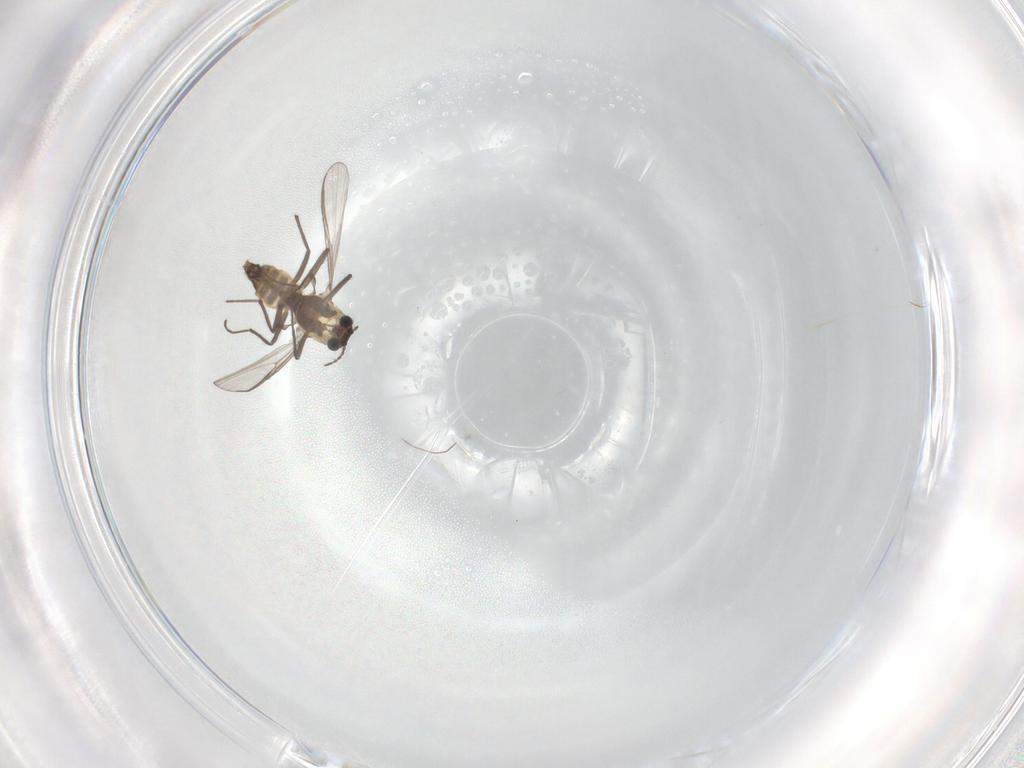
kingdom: Animalia
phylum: Arthropoda
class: Insecta
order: Diptera
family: Chironomidae
